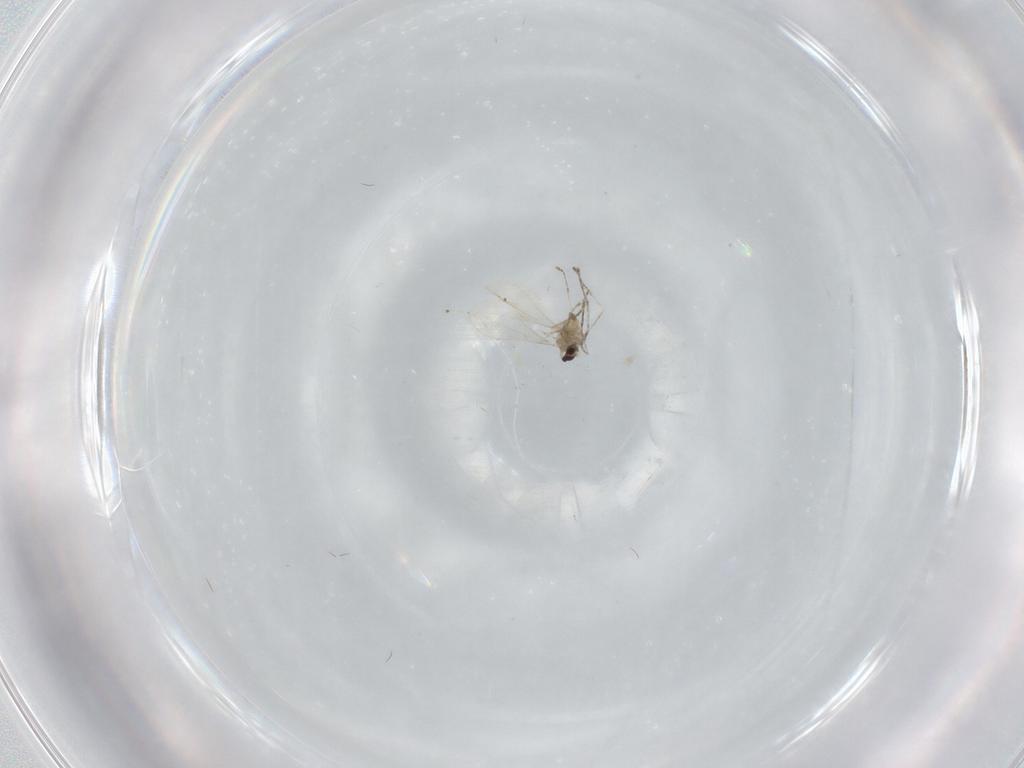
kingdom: Animalia
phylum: Arthropoda
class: Insecta
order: Diptera
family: Cecidomyiidae
